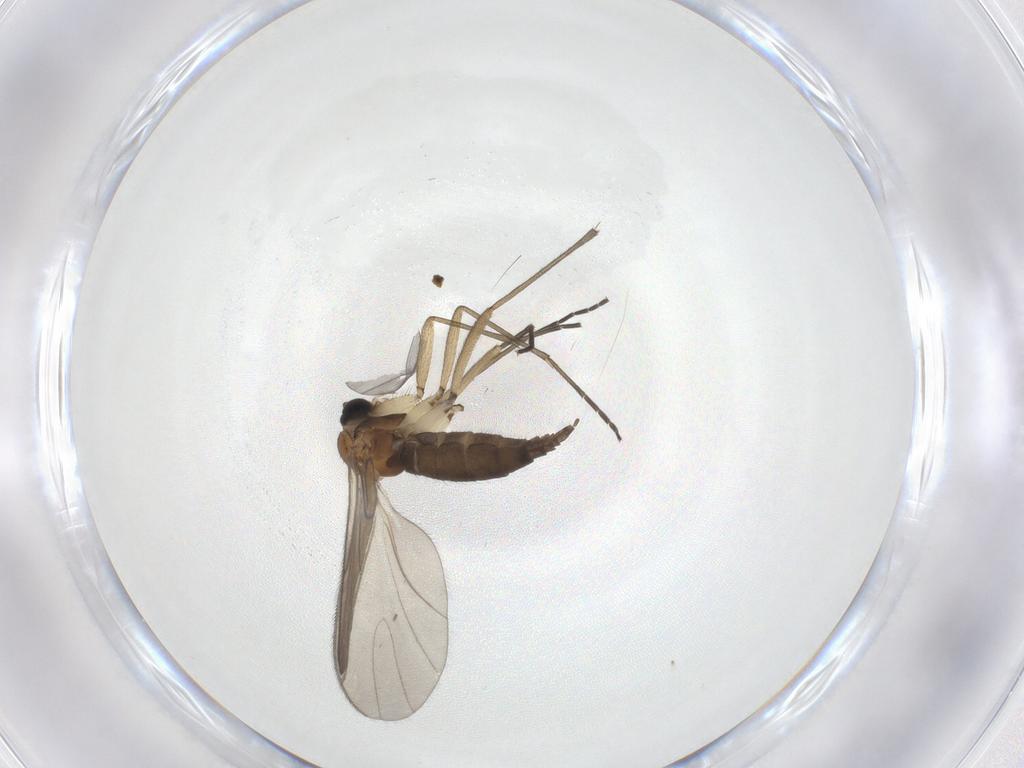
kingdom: Animalia
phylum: Arthropoda
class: Insecta
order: Diptera
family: Sciaridae
